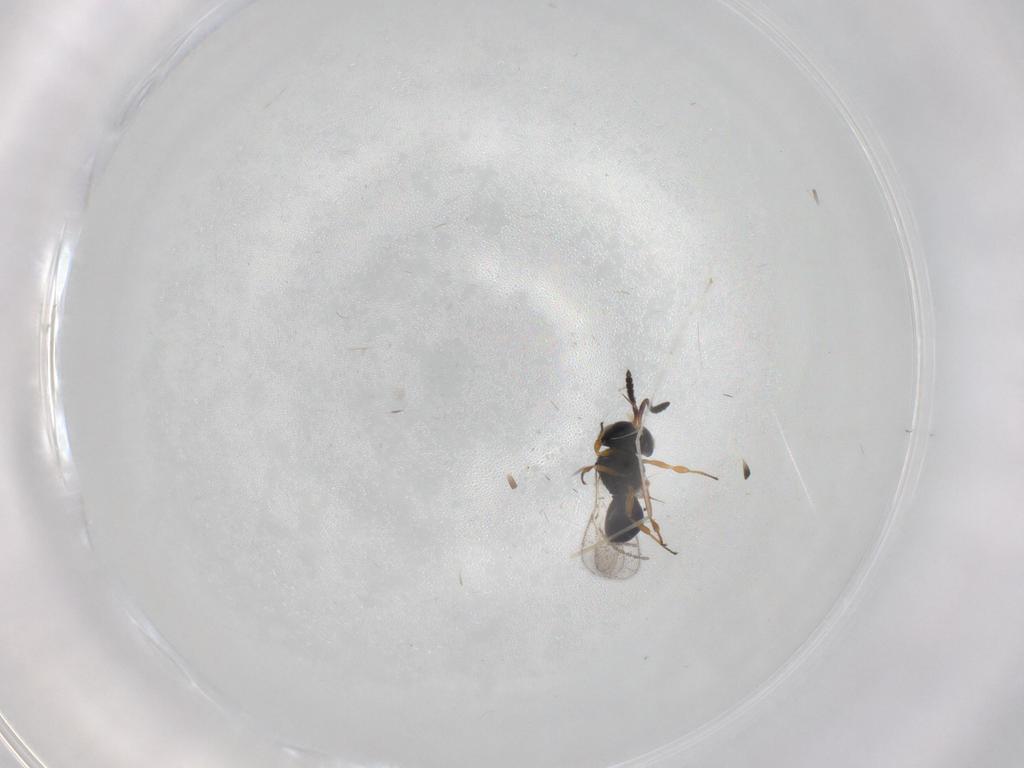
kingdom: Animalia
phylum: Arthropoda
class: Insecta
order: Hymenoptera
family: Scelionidae
